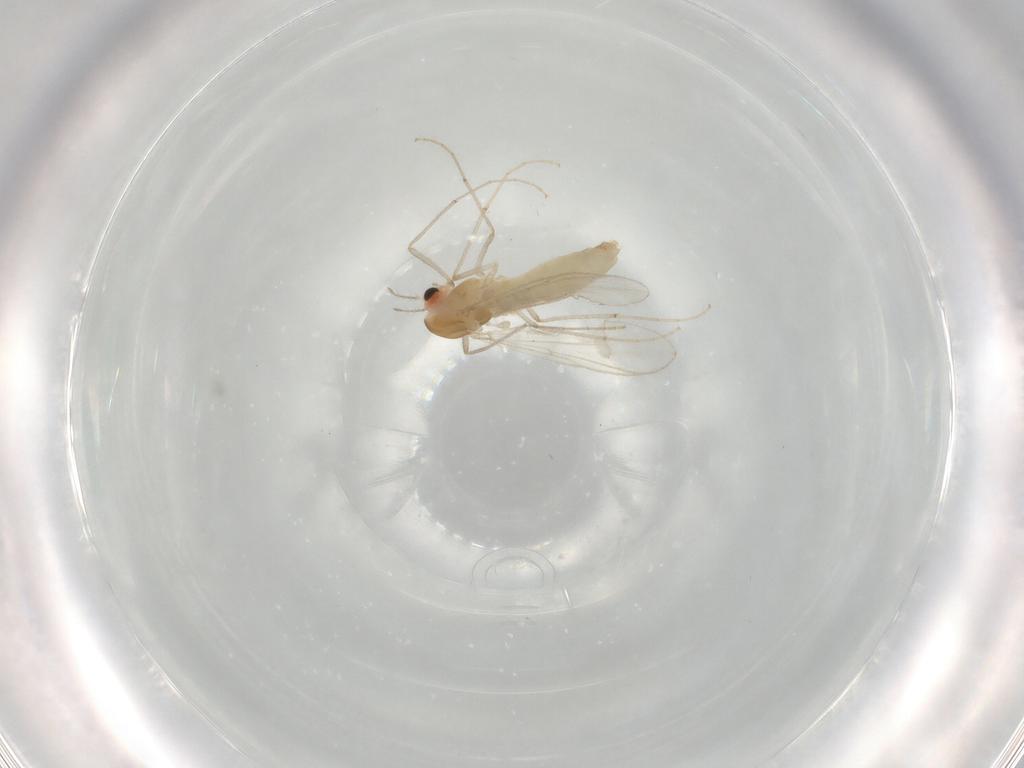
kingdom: Animalia
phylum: Arthropoda
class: Insecta
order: Diptera
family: Chironomidae
